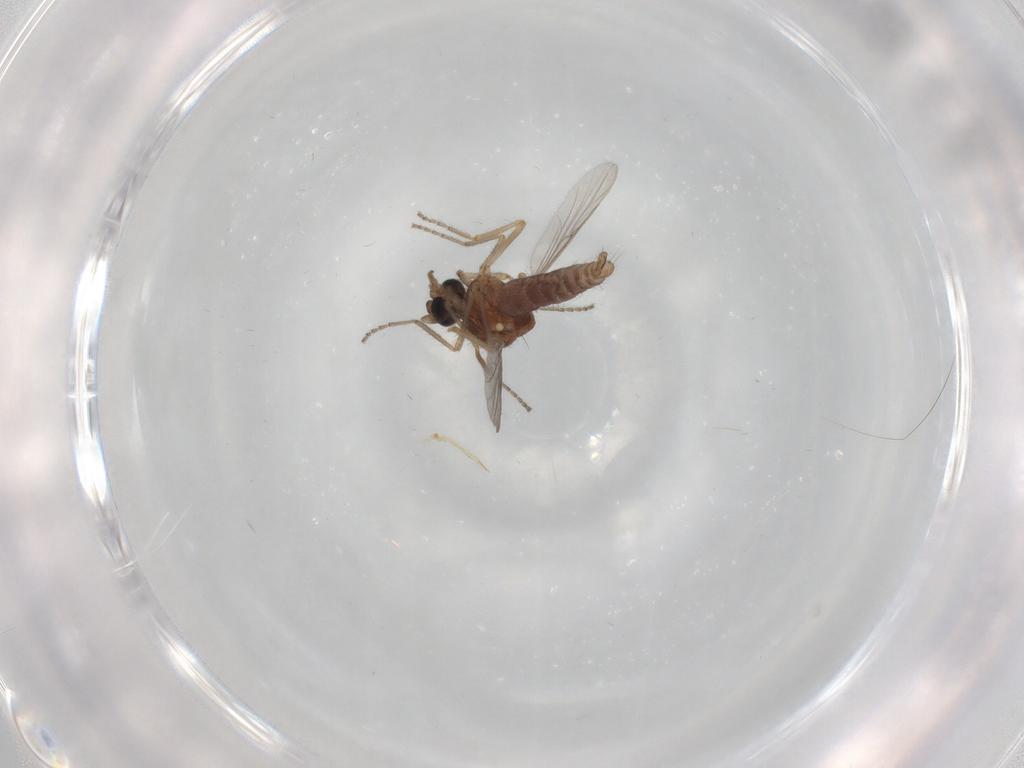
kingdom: Animalia
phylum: Arthropoda
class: Insecta
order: Diptera
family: Ceratopogonidae
